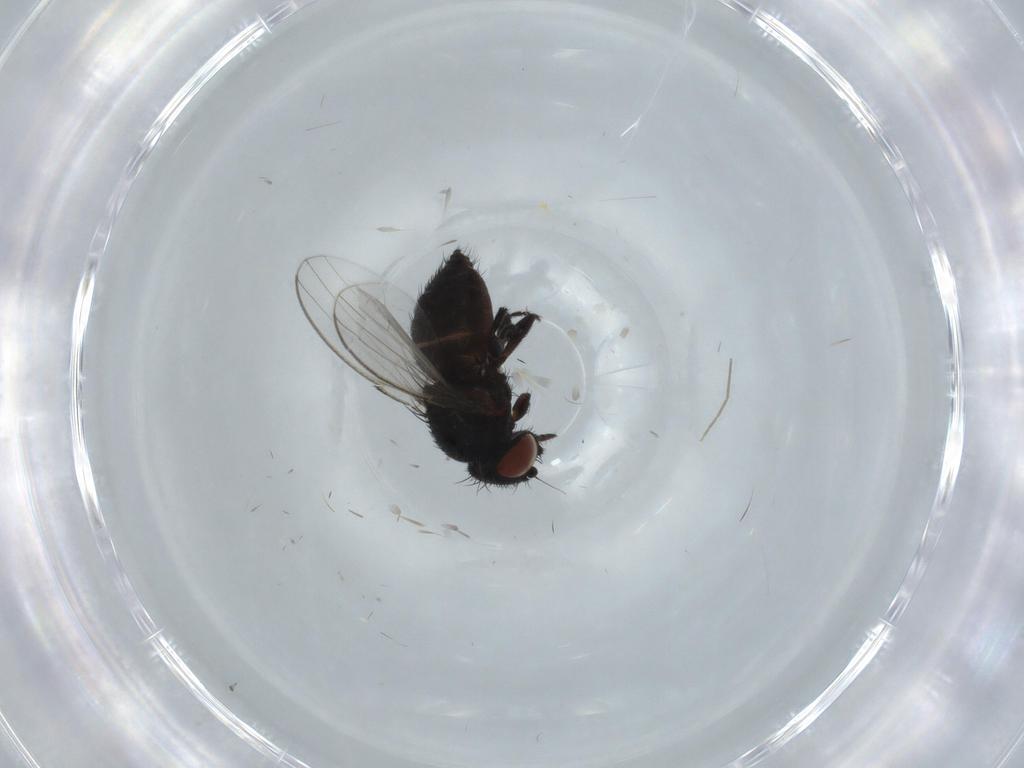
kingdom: Animalia
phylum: Arthropoda
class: Insecta
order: Diptera
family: Milichiidae
